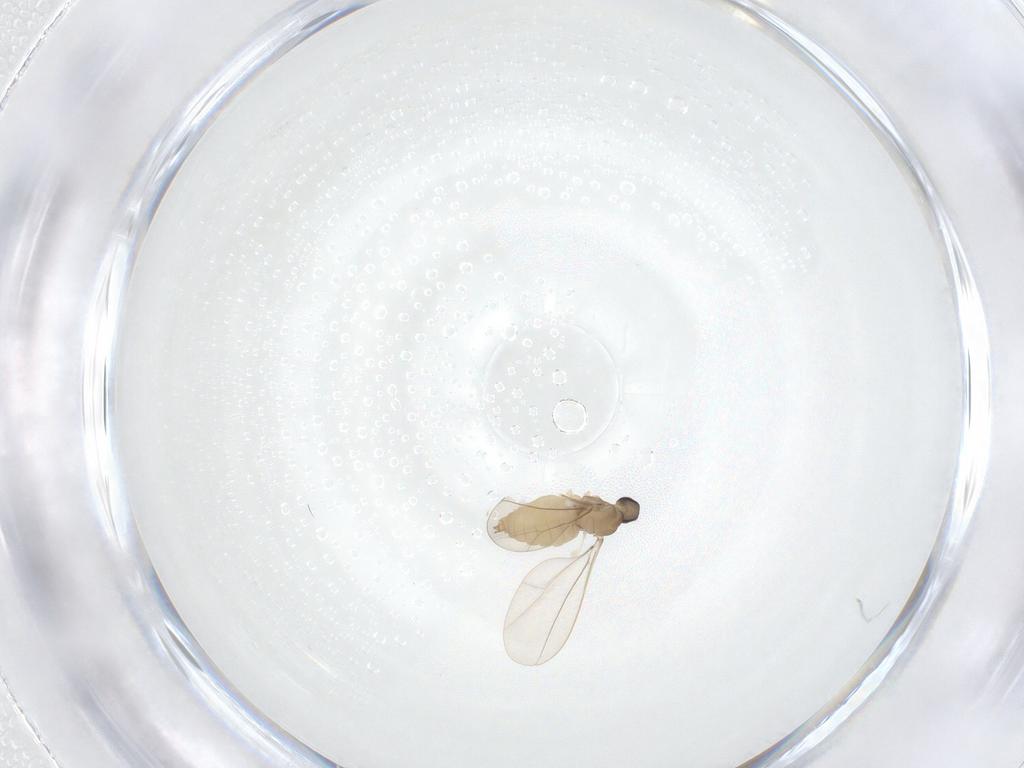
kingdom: Animalia
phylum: Arthropoda
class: Insecta
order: Diptera
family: Cecidomyiidae
